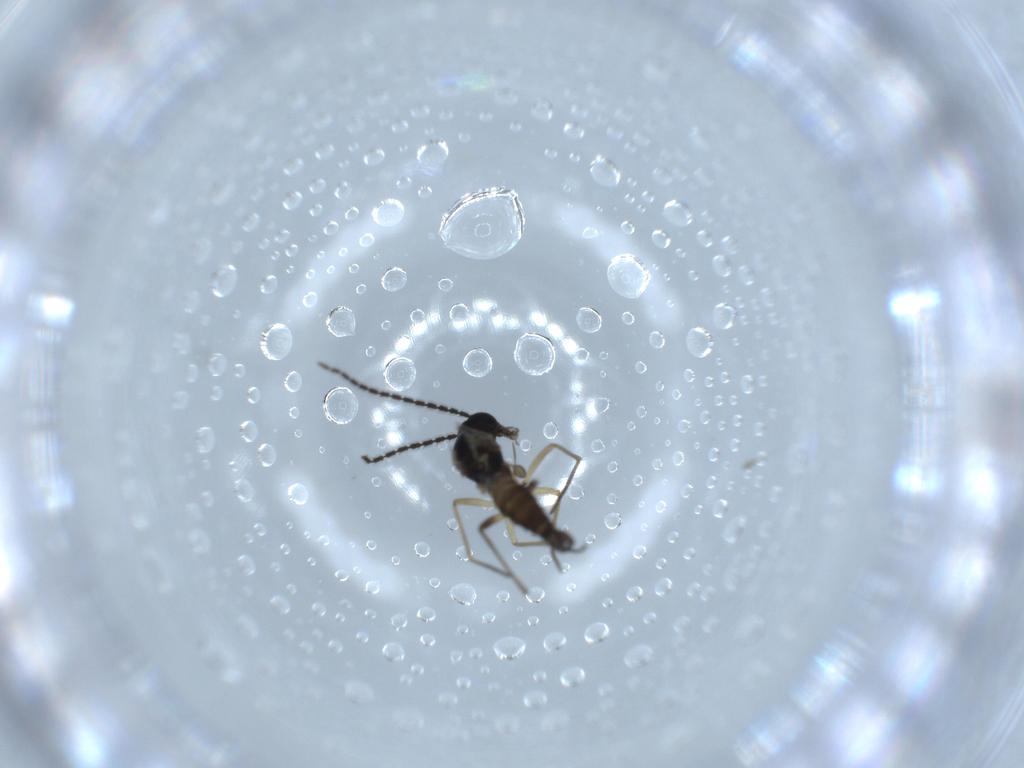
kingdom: Animalia
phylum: Arthropoda
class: Insecta
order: Diptera
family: Sciaridae
